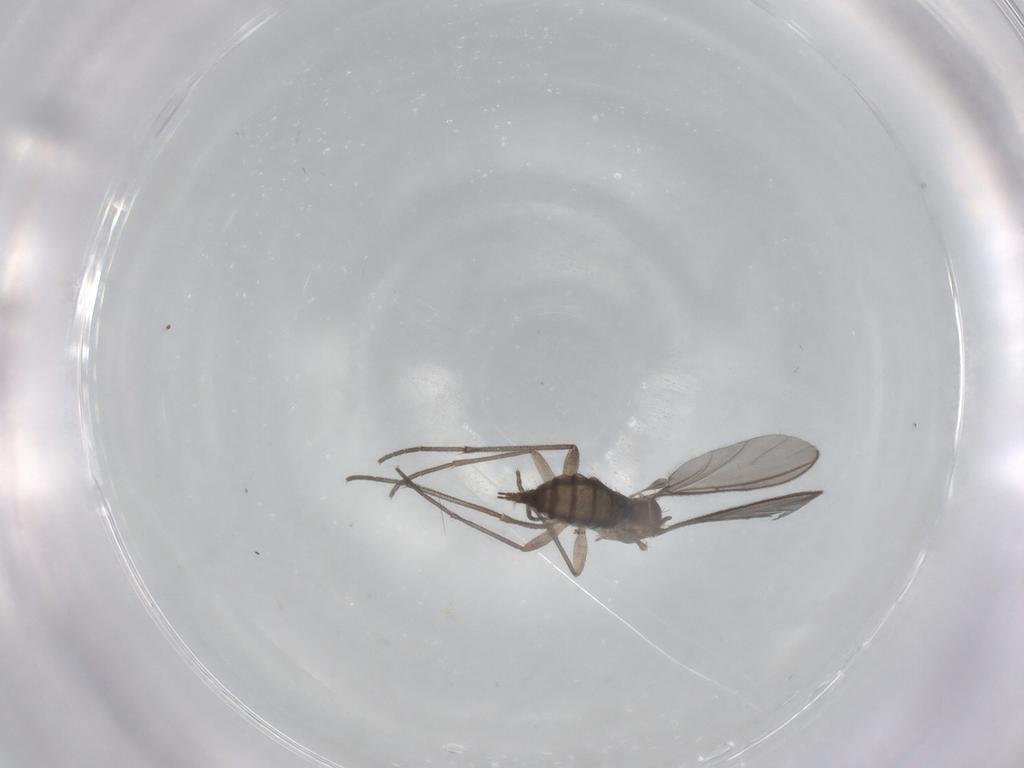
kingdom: Animalia
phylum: Arthropoda
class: Insecta
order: Diptera
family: Sciaridae
